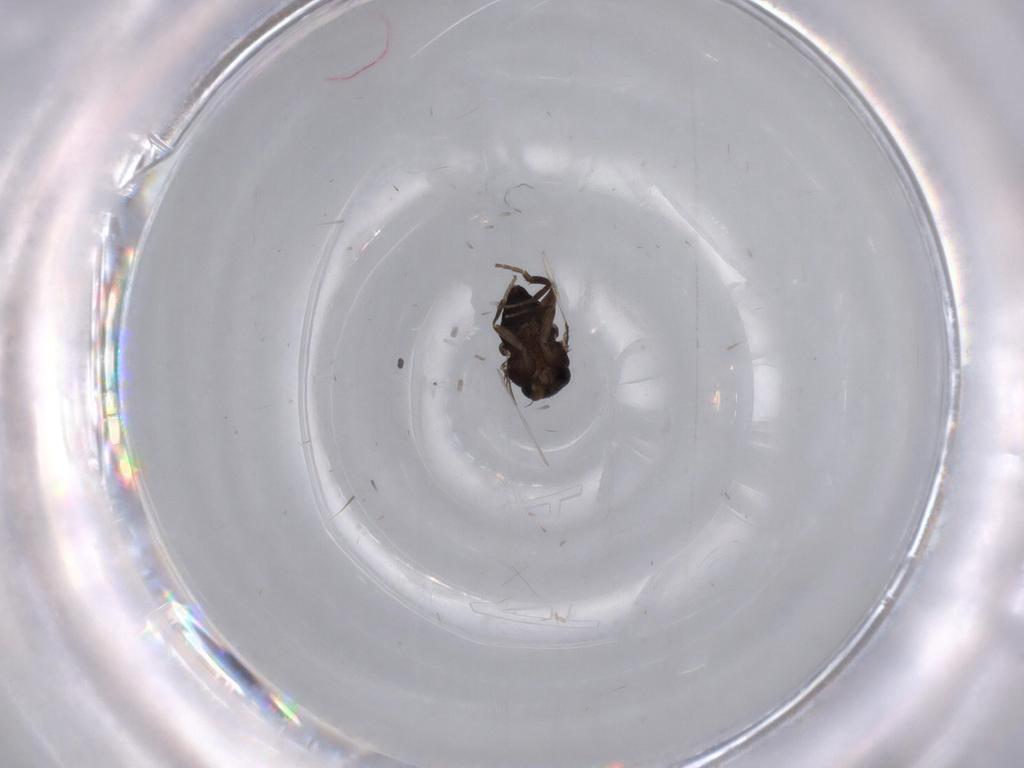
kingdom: Animalia
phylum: Arthropoda
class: Insecta
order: Diptera
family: Phoridae
